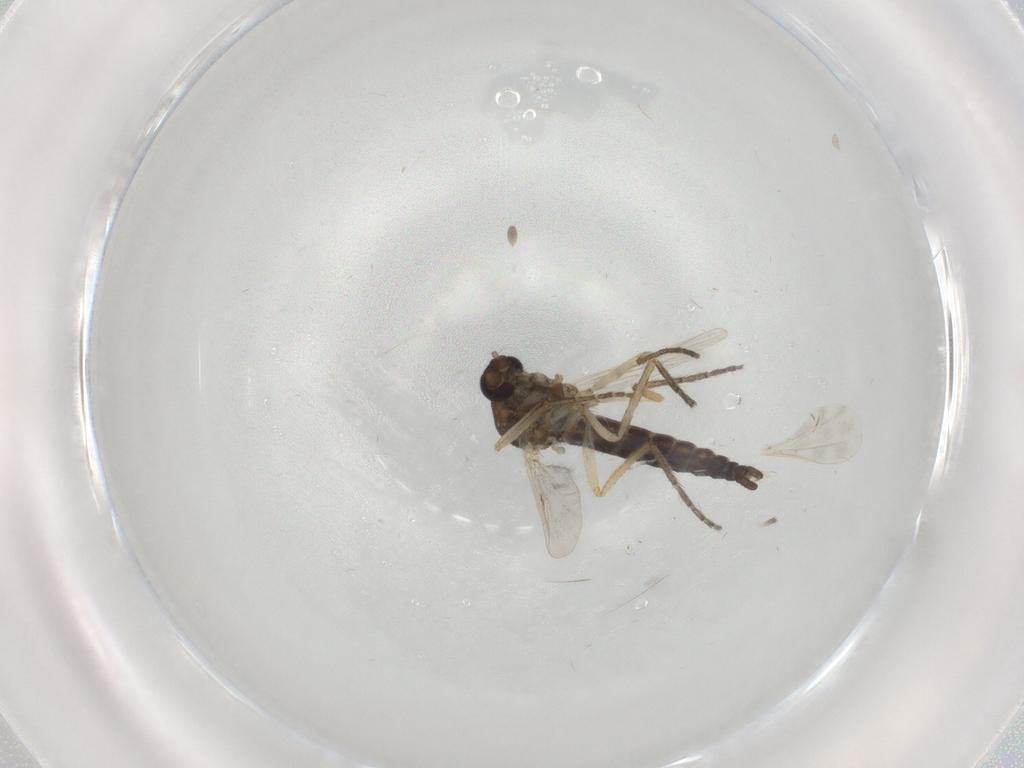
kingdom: Animalia
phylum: Arthropoda
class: Insecta
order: Diptera
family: Ceratopogonidae
